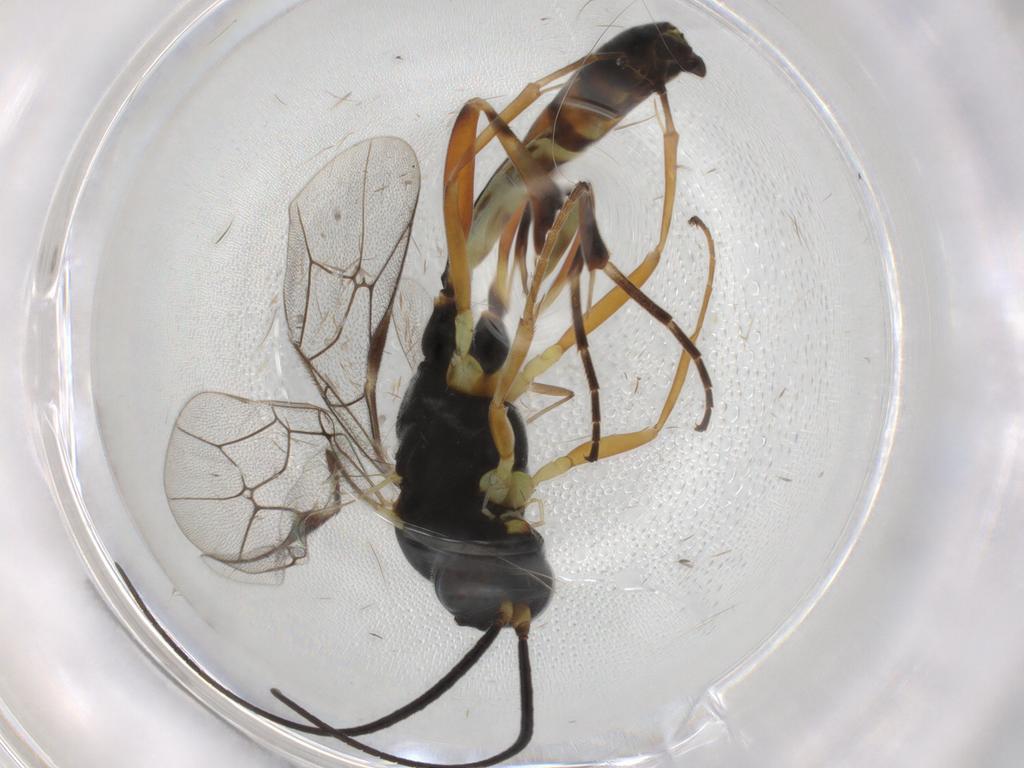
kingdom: Animalia
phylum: Arthropoda
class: Insecta
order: Hymenoptera
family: Ichneumonidae
